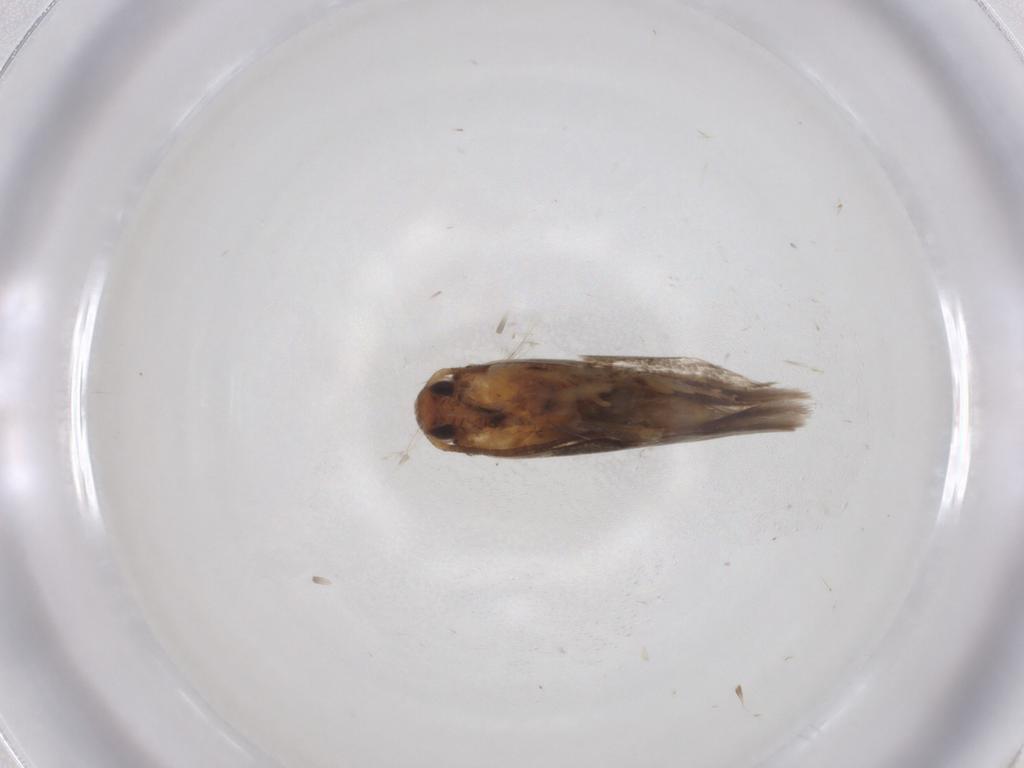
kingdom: Animalia
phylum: Arthropoda
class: Insecta
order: Lepidoptera
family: Gelechiidae
